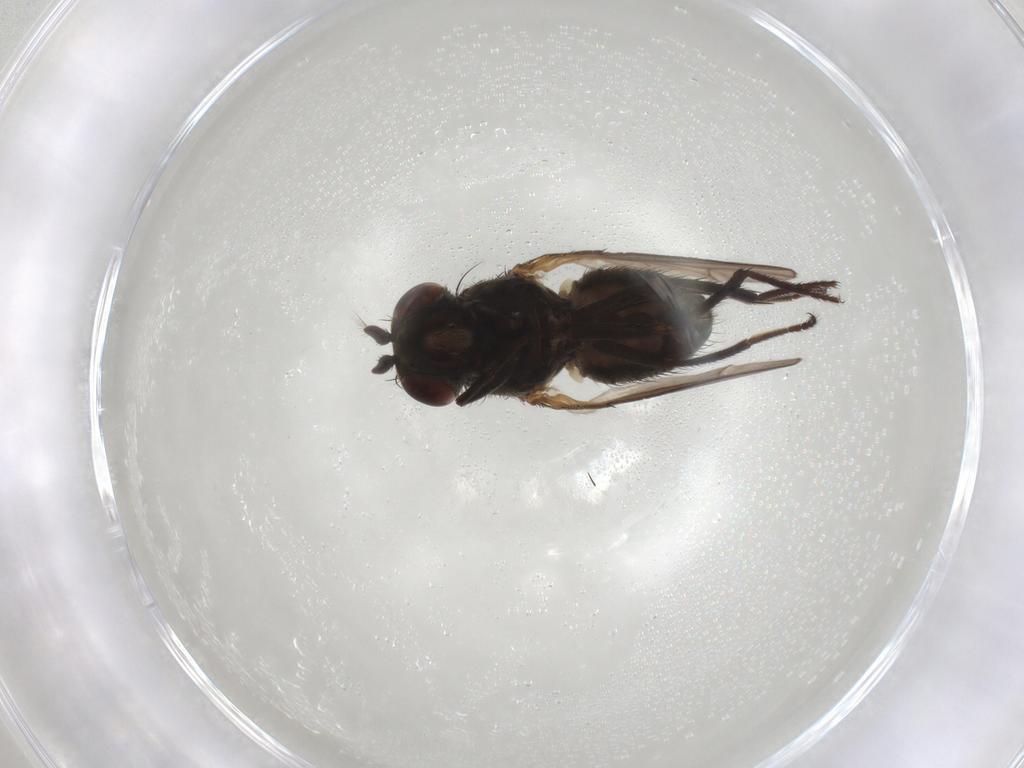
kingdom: Animalia
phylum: Arthropoda
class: Insecta
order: Diptera
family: Ephydridae
